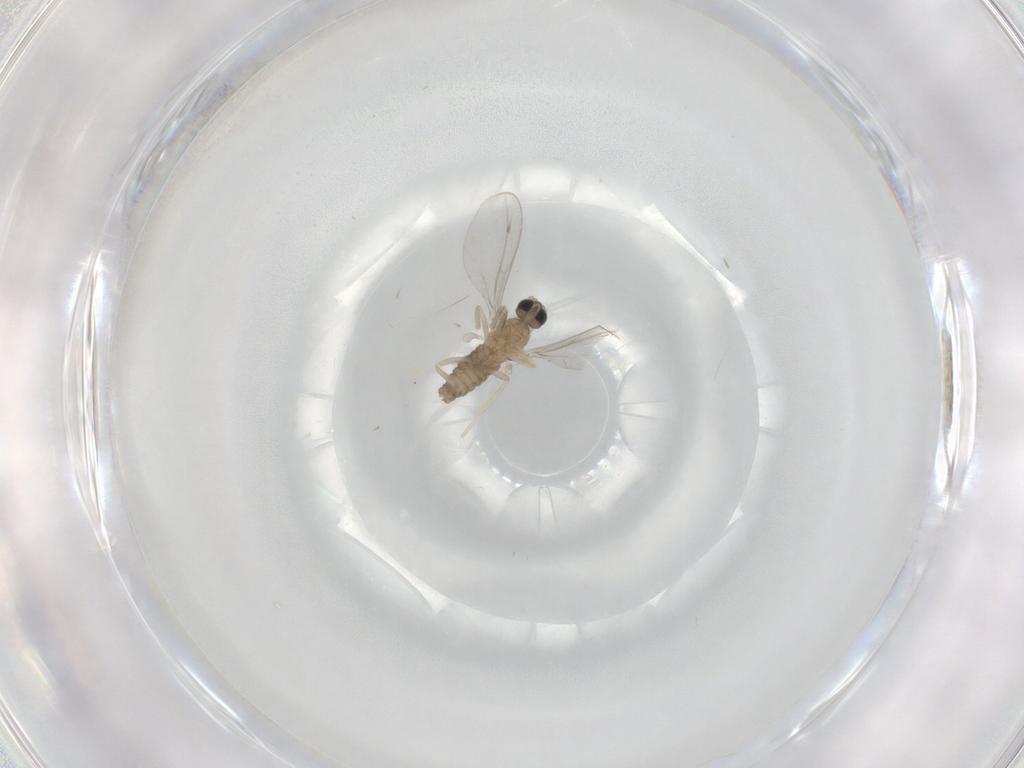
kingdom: Animalia
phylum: Arthropoda
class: Insecta
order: Diptera
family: Cecidomyiidae
